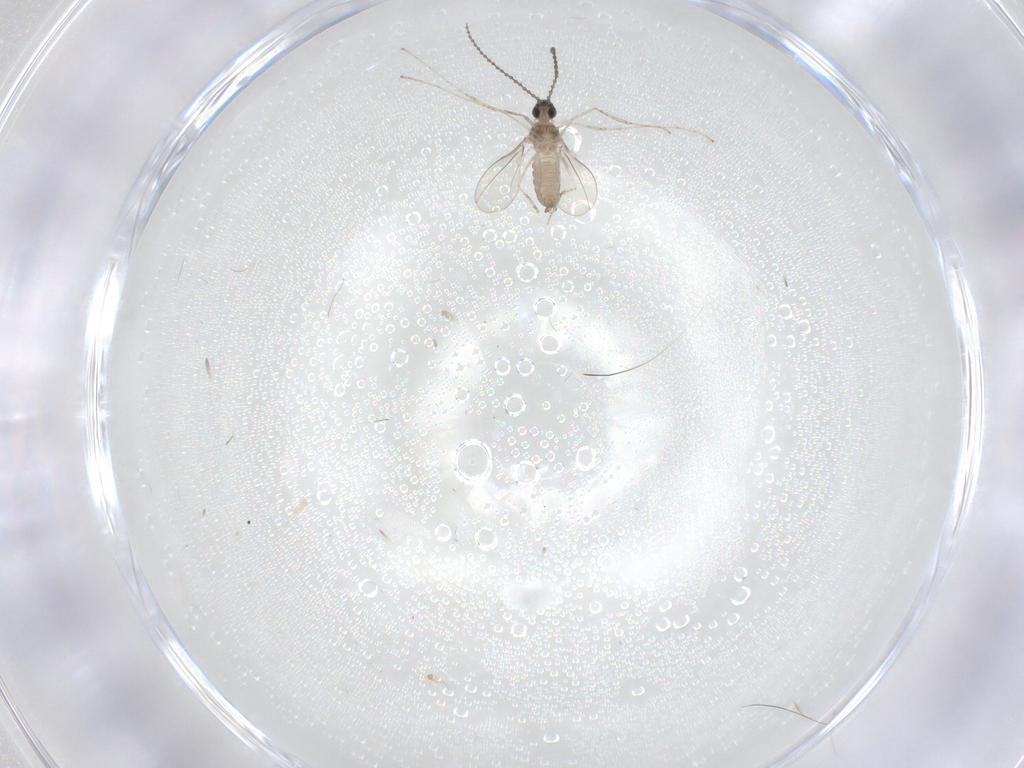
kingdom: Animalia
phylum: Arthropoda
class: Insecta
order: Diptera
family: Cecidomyiidae
